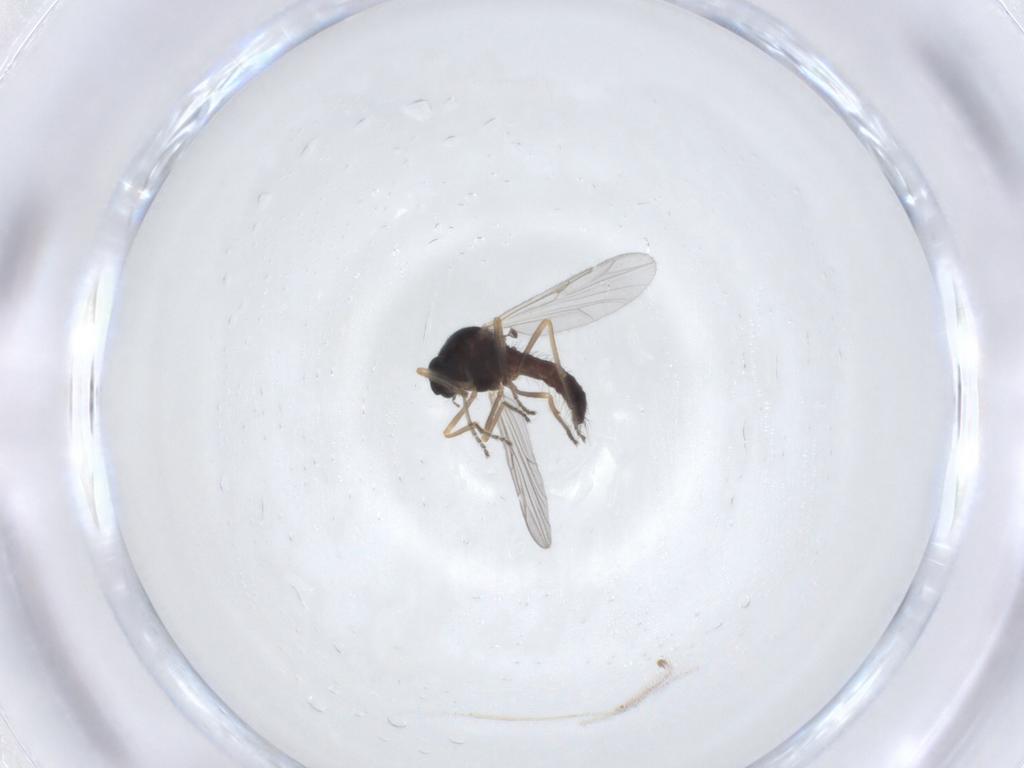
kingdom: Animalia
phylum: Arthropoda
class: Insecta
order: Diptera
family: Ceratopogonidae
